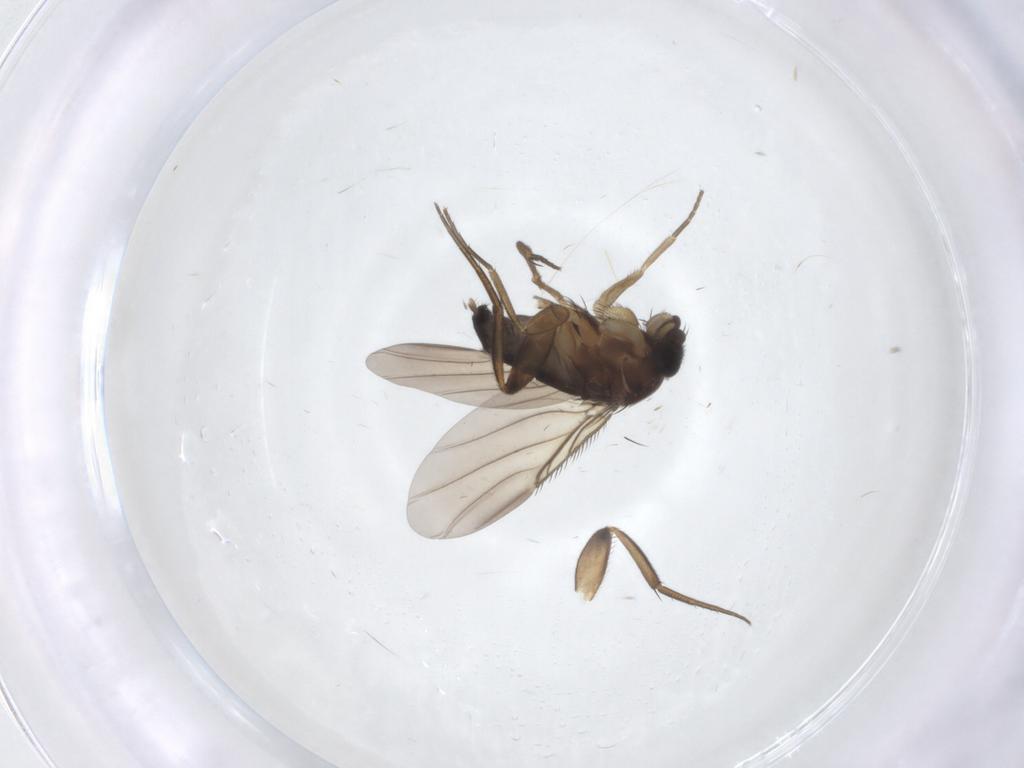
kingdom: Animalia
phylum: Arthropoda
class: Insecta
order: Diptera
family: Phoridae
